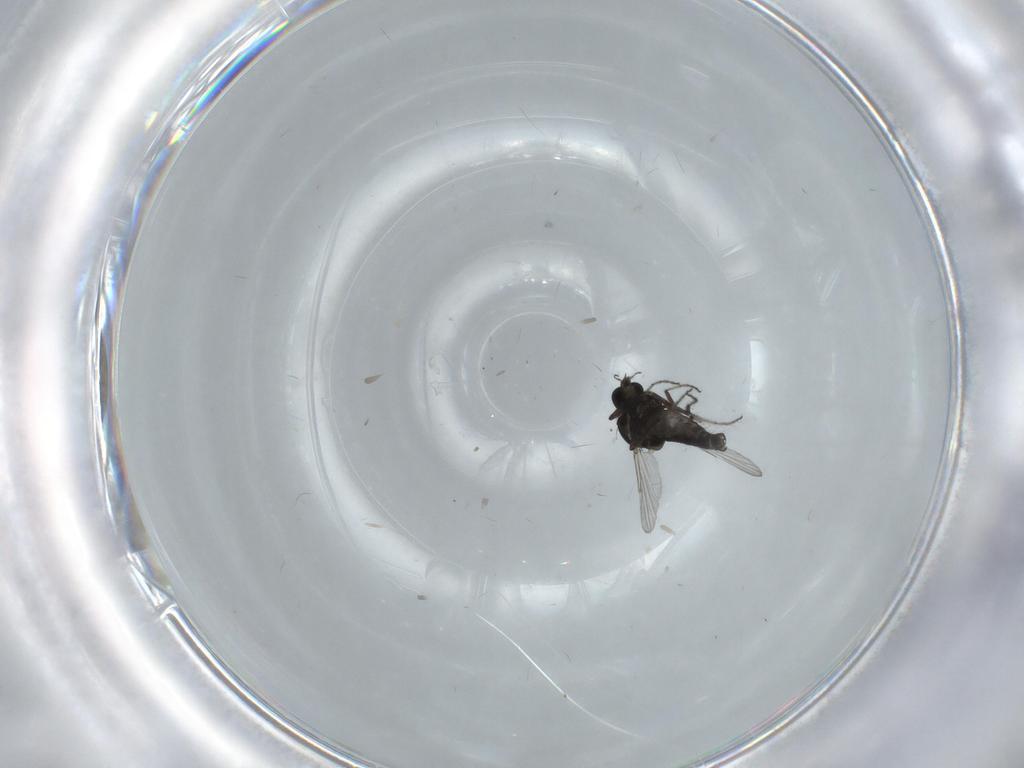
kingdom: Animalia
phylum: Arthropoda
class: Insecta
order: Diptera
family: Ceratopogonidae
